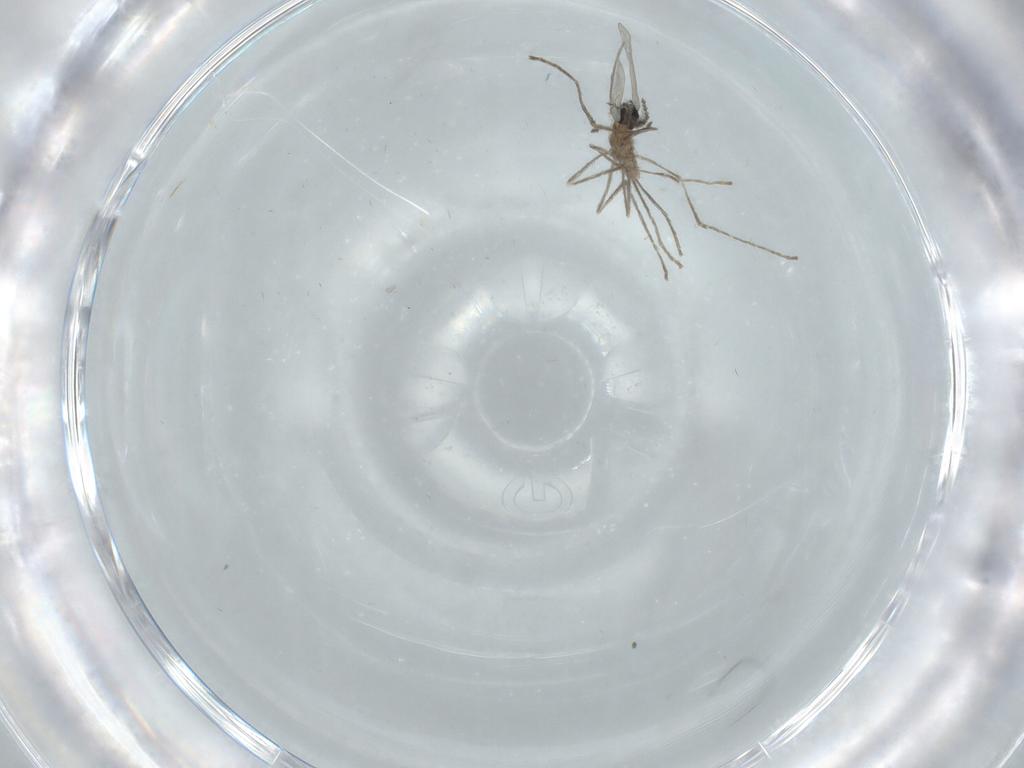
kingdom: Animalia
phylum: Arthropoda
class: Insecta
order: Diptera
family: Cecidomyiidae
